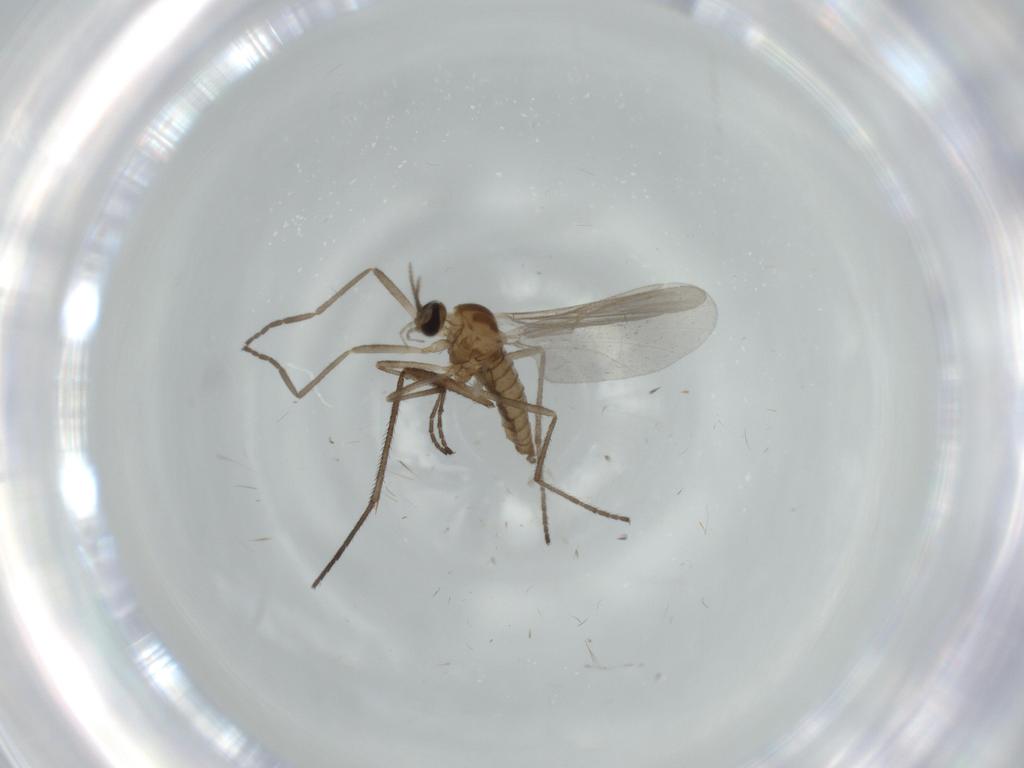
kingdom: Animalia
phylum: Arthropoda
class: Insecta
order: Diptera
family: Cecidomyiidae
